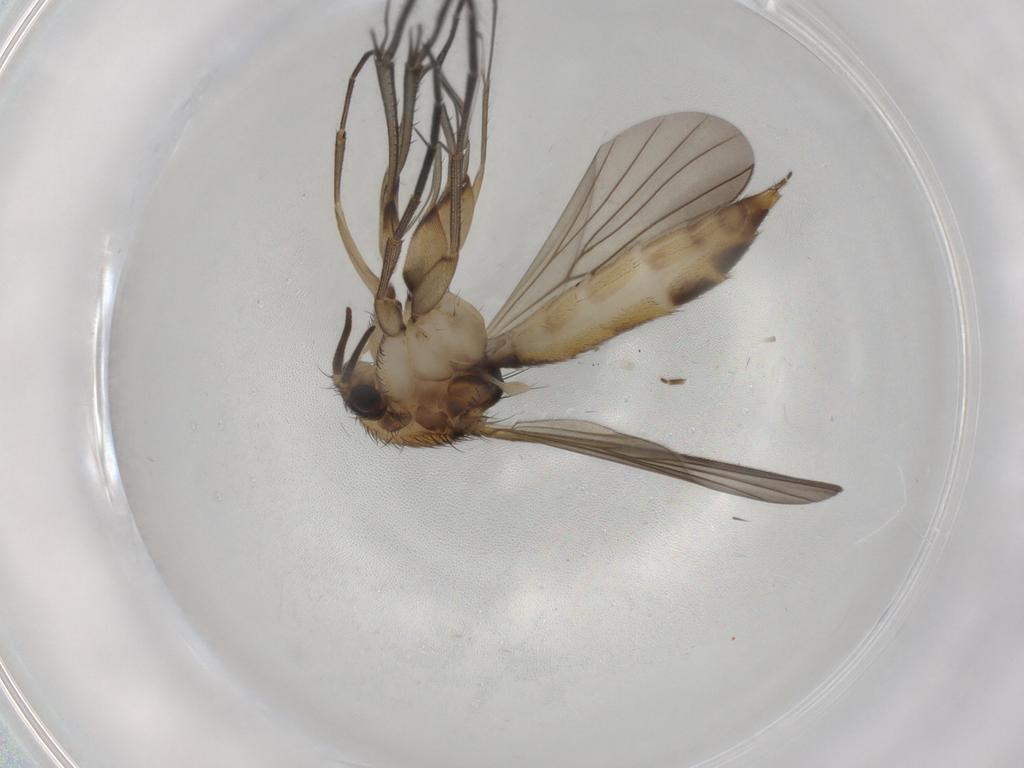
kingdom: Animalia
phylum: Arthropoda
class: Insecta
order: Diptera
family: Mycetophilidae
